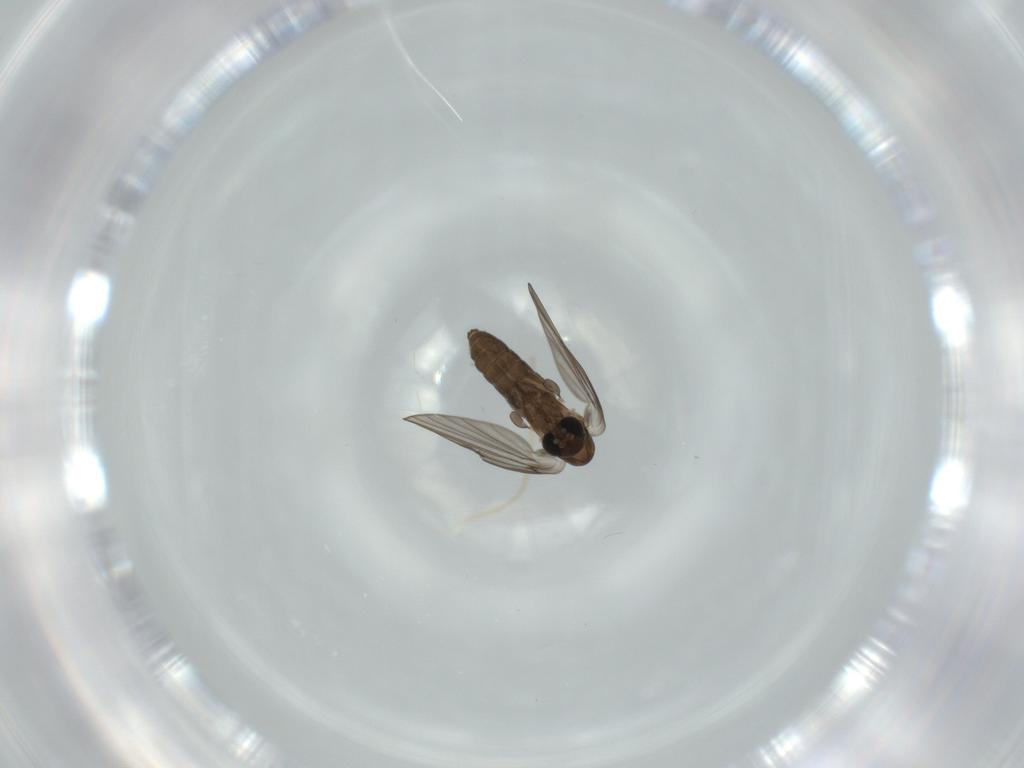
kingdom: Animalia
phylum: Arthropoda
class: Insecta
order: Diptera
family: Psychodidae
